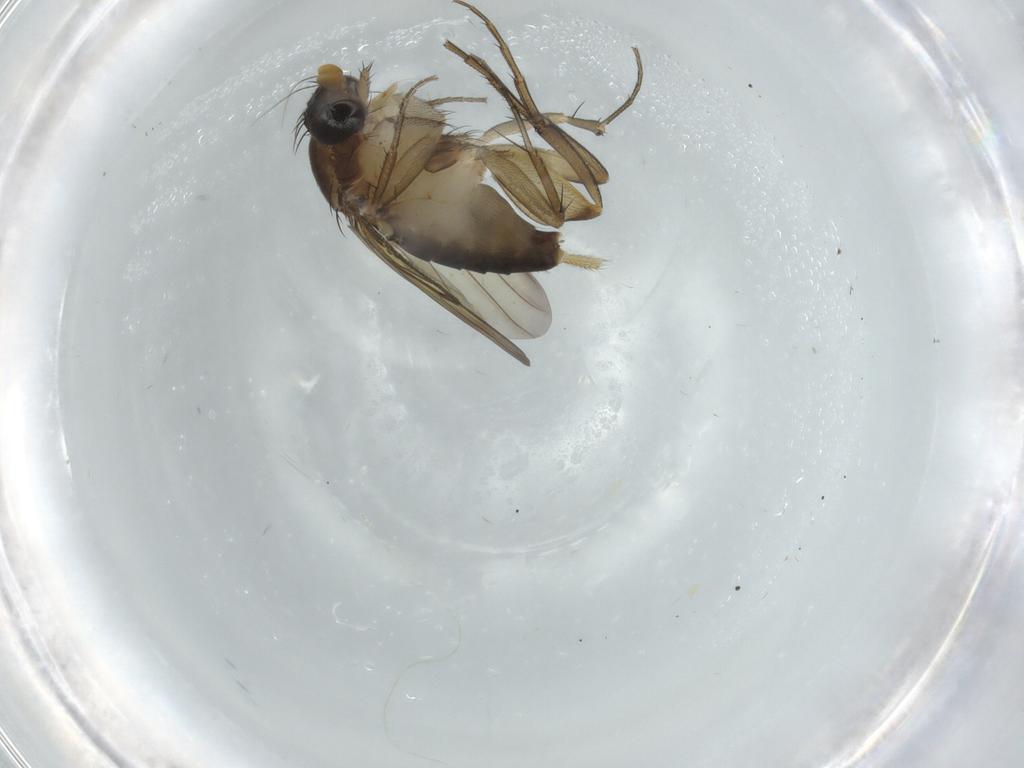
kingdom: Animalia
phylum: Arthropoda
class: Insecta
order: Diptera
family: Phoridae
